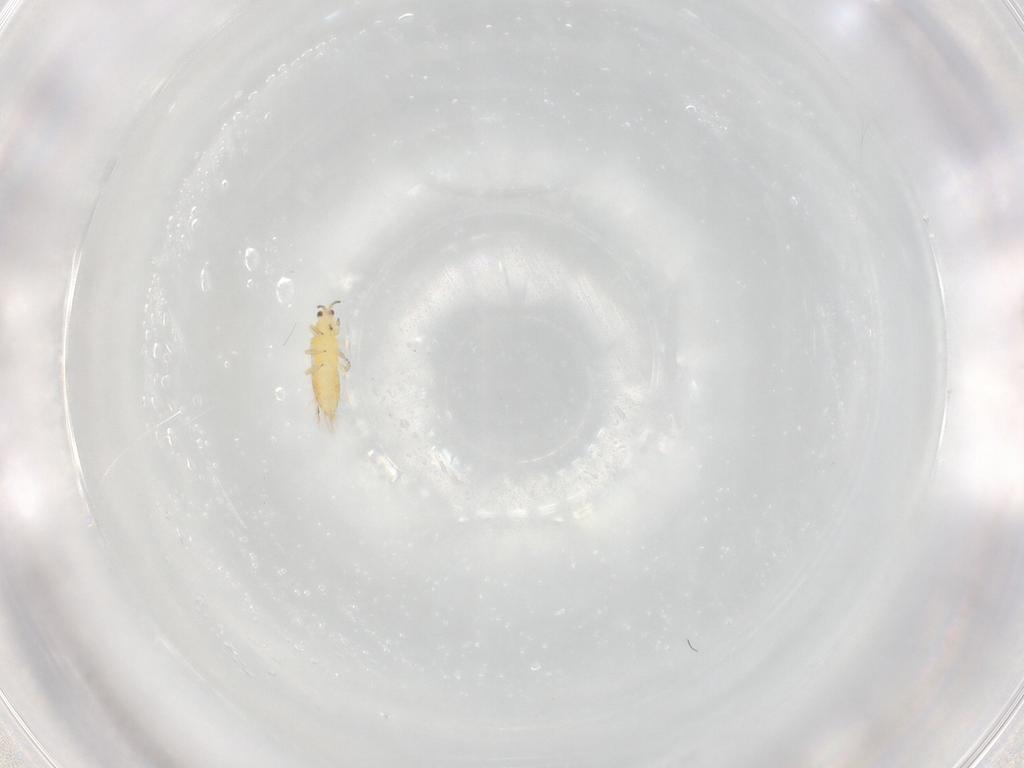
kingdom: Animalia
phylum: Arthropoda
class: Insecta
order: Thysanoptera
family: Thripidae
